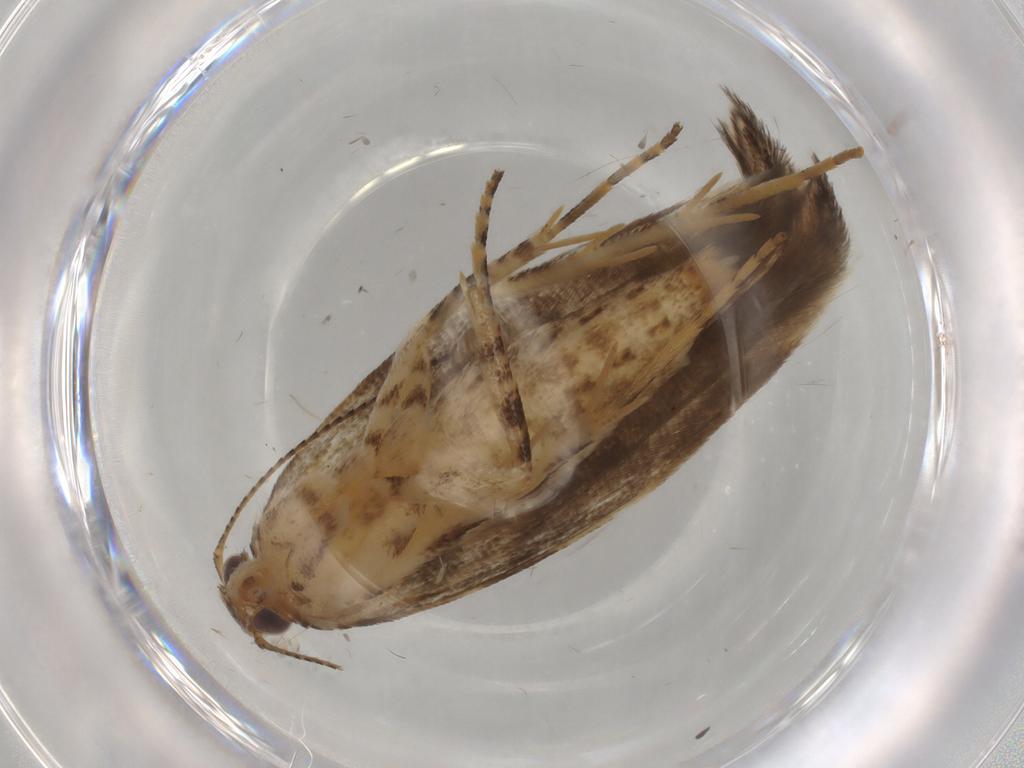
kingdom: Animalia
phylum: Arthropoda
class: Insecta
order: Lepidoptera
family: Gelechiidae
